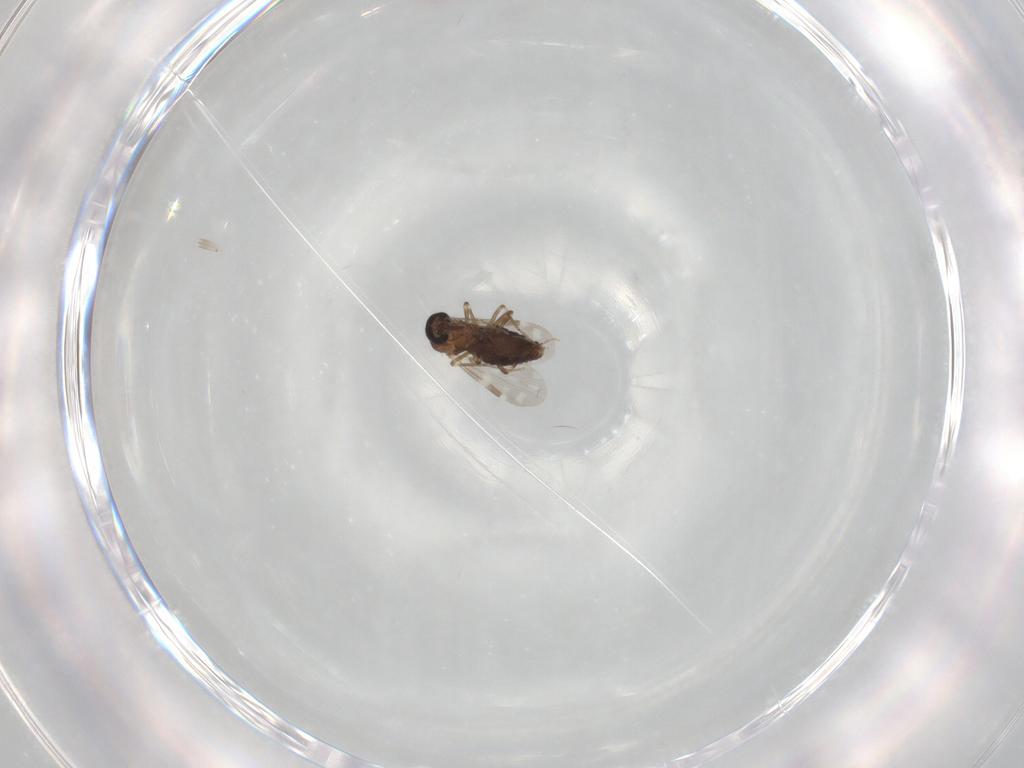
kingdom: Animalia
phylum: Arthropoda
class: Insecta
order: Diptera
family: Ceratopogonidae
